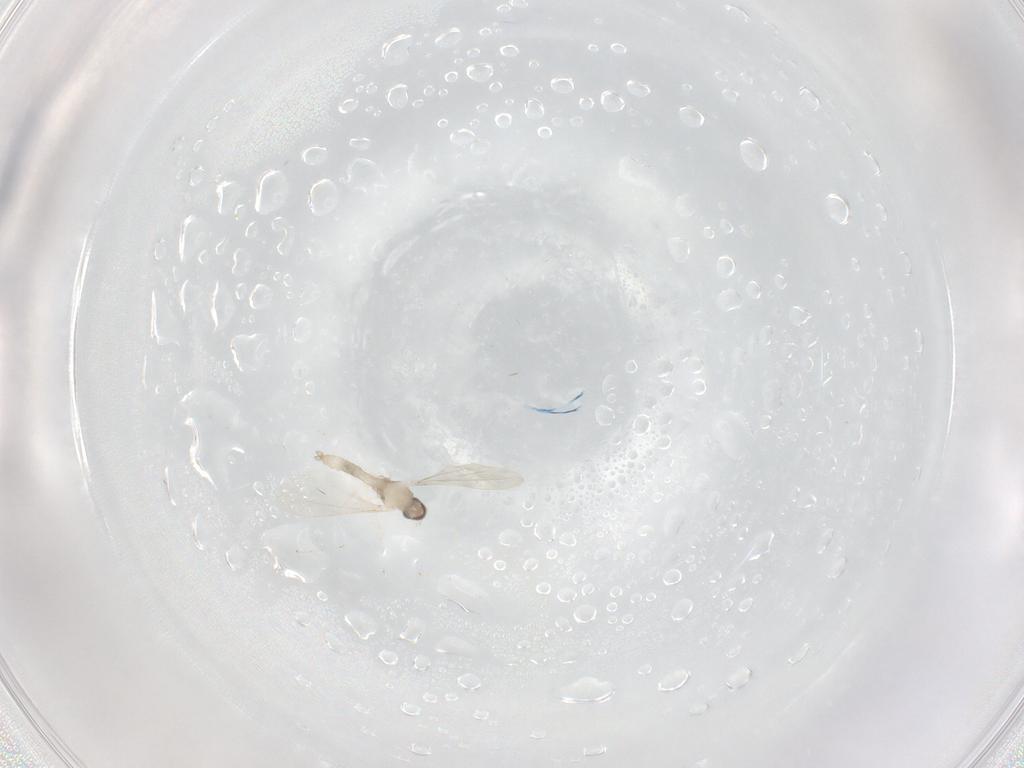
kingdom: Animalia
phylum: Arthropoda
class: Insecta
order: Diptera
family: Cecidomyiidae
